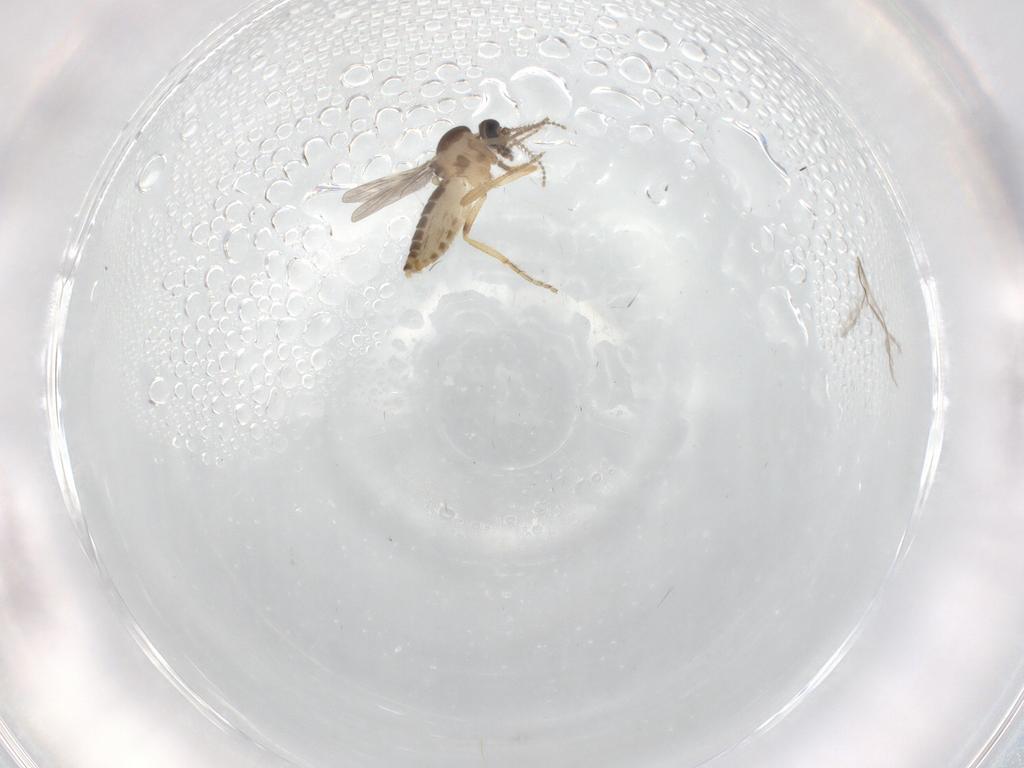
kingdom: Animalia
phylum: Arthropoda
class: Insecta
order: Diptera
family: Ceratopogonidae
